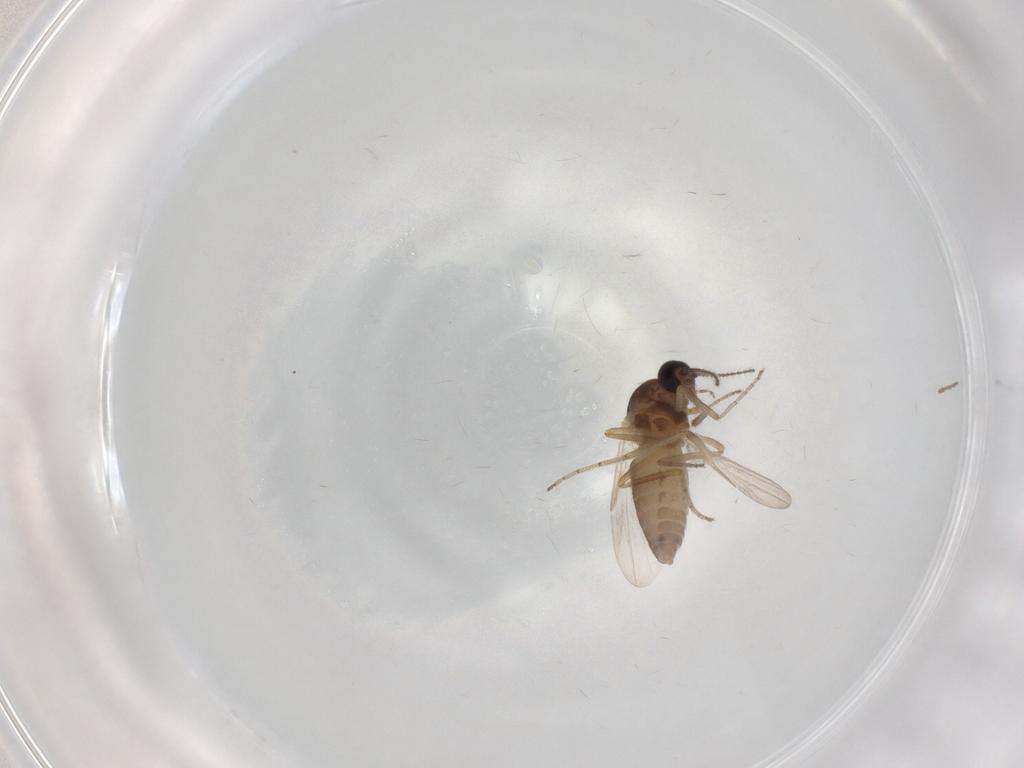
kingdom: Animalia
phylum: Arthropoda
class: Insecta
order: Diptera
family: Ceratopogonidae
